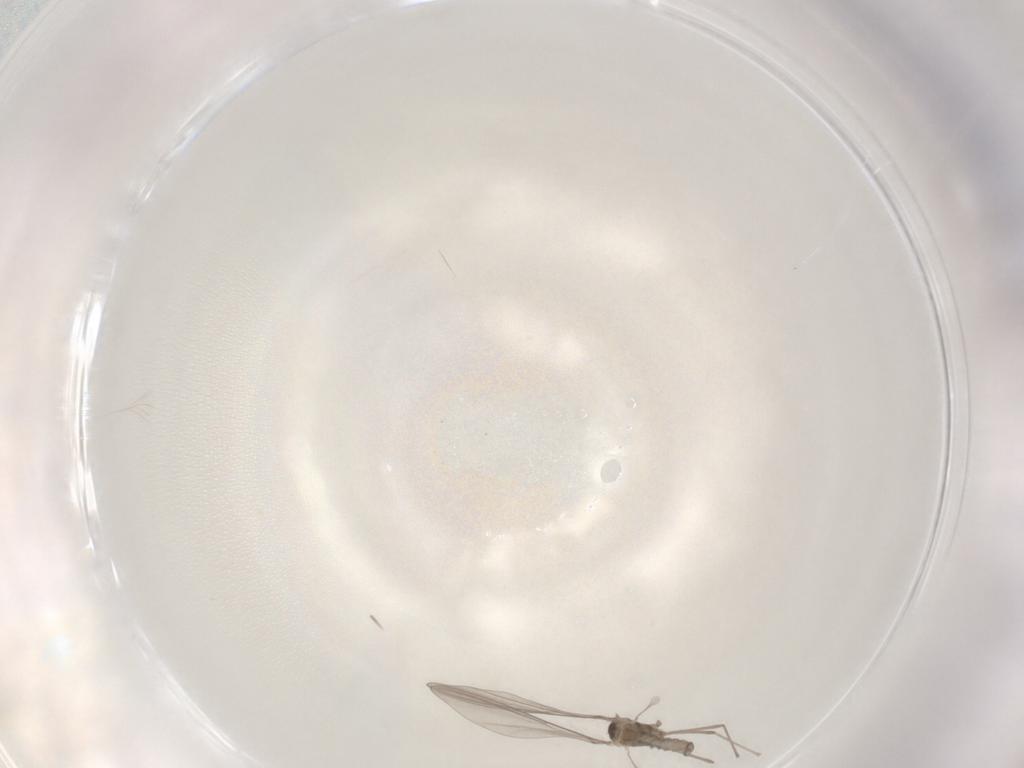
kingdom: Animalia
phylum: Arthropoda
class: Insecta
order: Diptera
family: Cecidomyiidae
